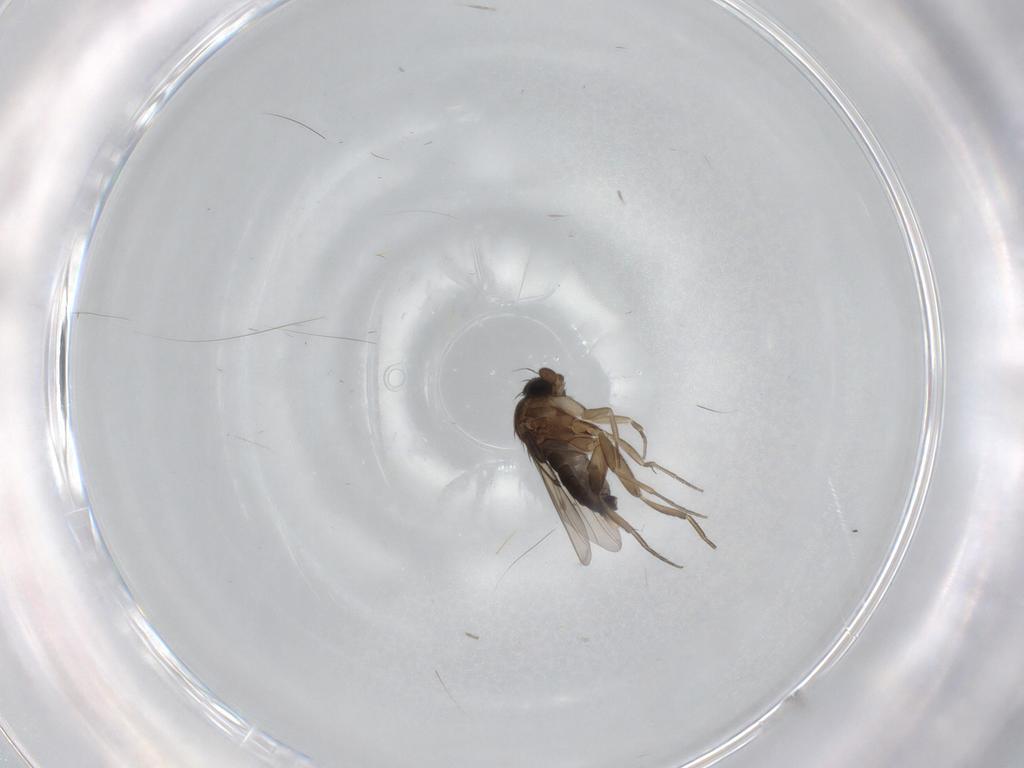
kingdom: Animalia
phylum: Arthropoda
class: Insecta
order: Diptera
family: Phoridae
